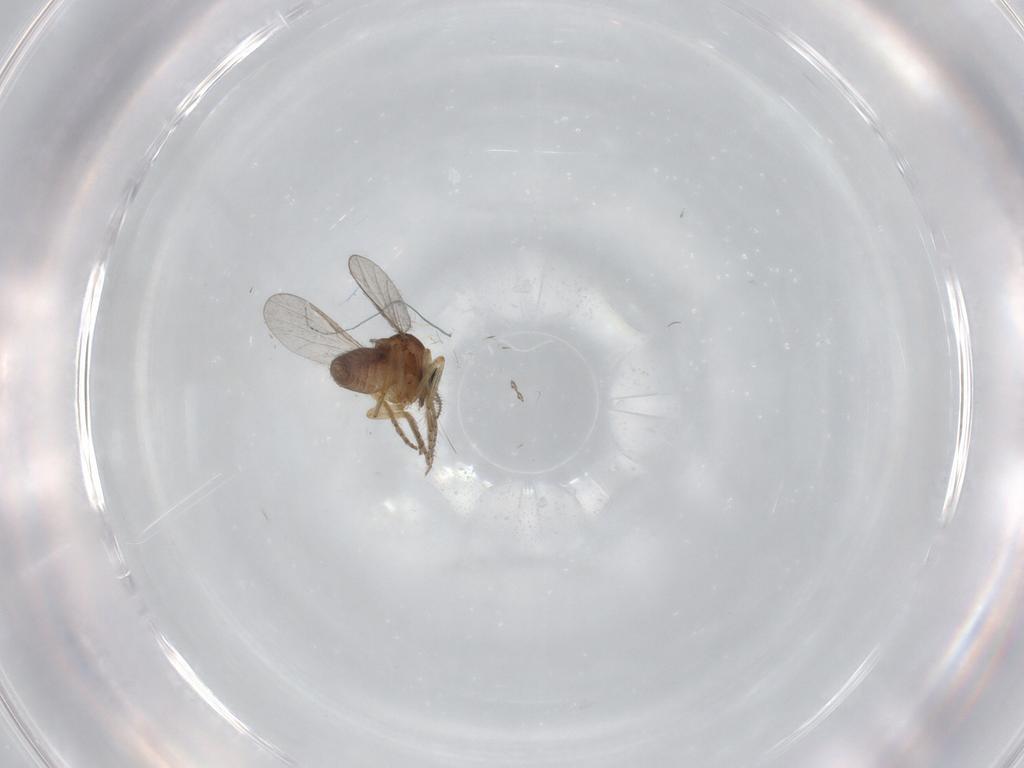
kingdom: Animalia
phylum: Arthropoda
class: Insecta
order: Diptera
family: Ceratopogonidae
